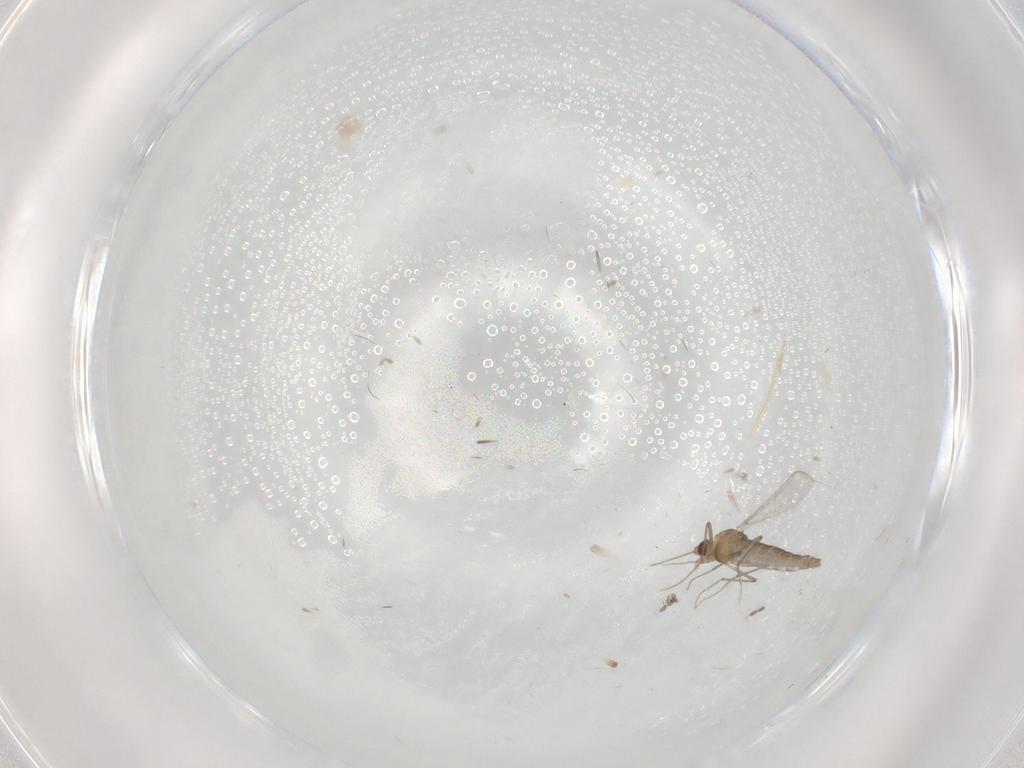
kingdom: Animalia
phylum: Arthropoda
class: Insecta
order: Diptera
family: Chironomidae
